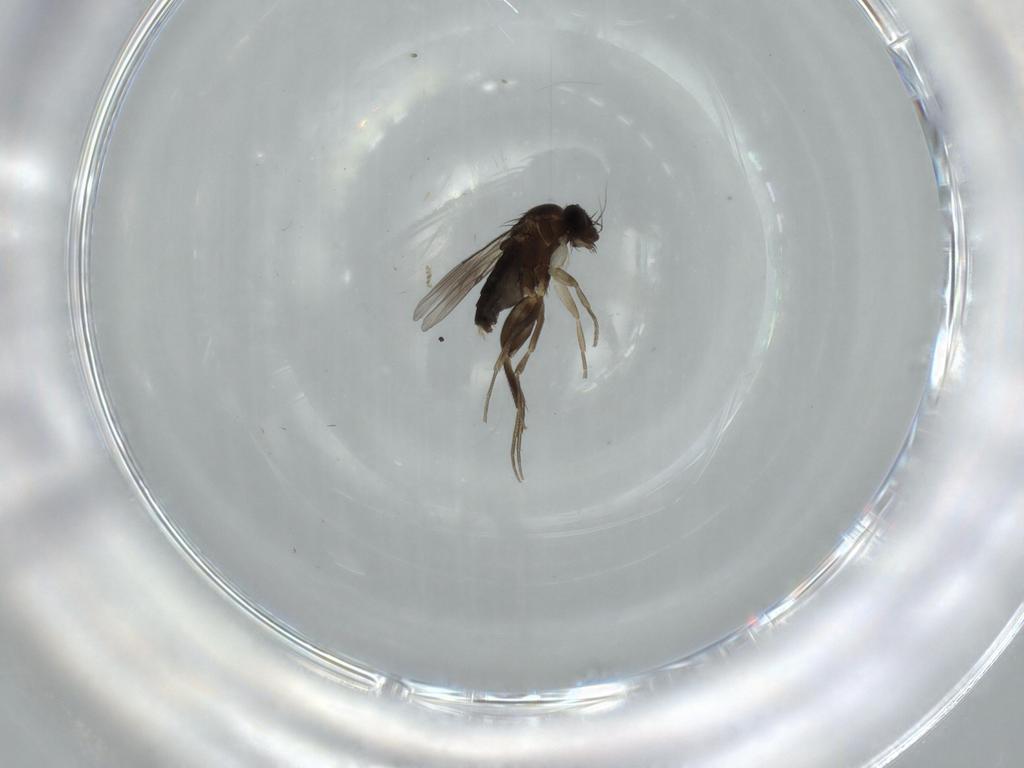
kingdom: Animalia
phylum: Arthropoda
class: Insecta
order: Diptera
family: Phoridae
